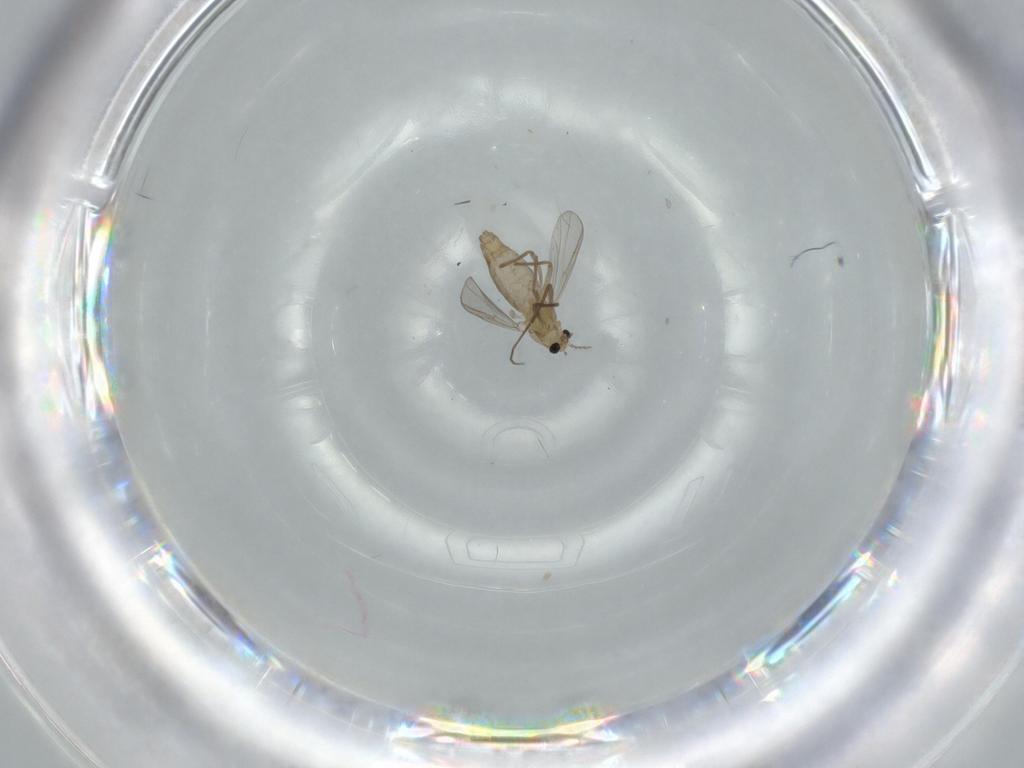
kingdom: Animalia
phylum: Arthropoda
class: Insecta
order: Diptera
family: Chironomidae
